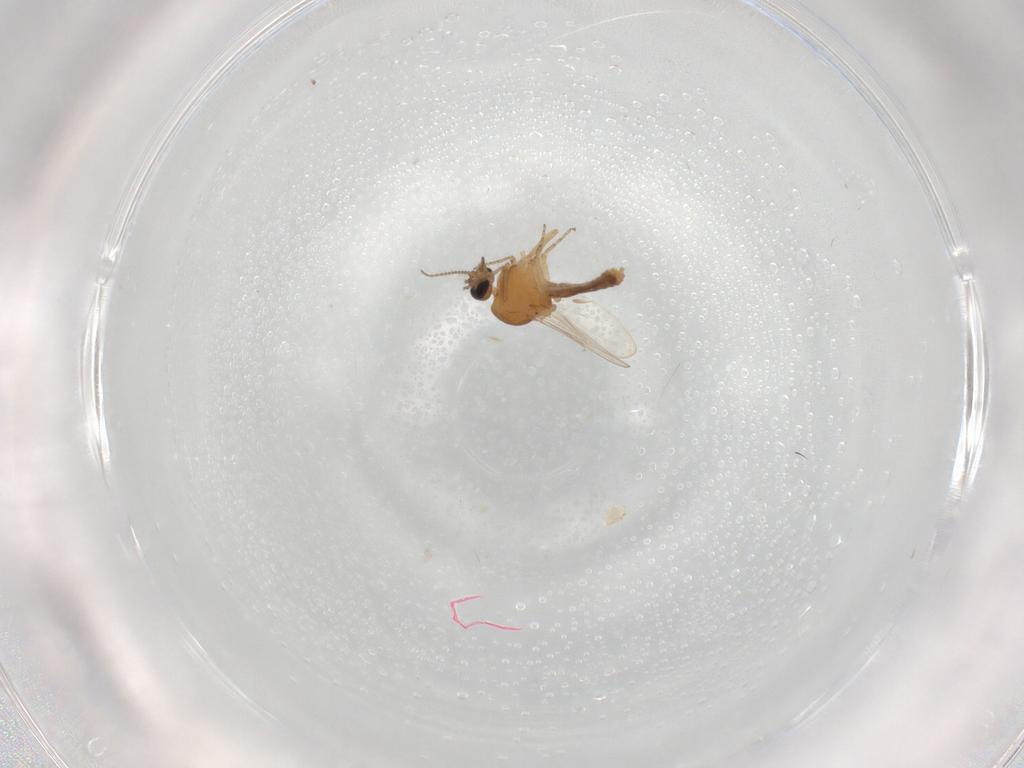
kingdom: Animalia
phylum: Arthropoda
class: Insecta
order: Diptera
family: Ceratopogonidae
